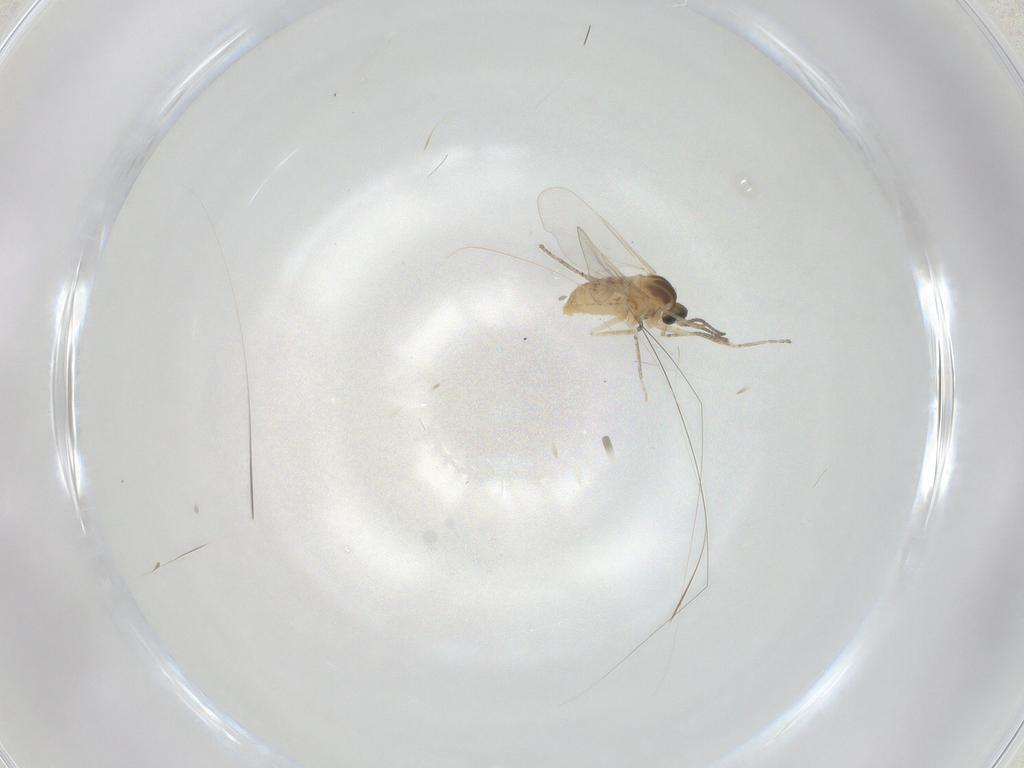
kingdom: Animalia
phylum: Arthropoda
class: Insecta
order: Diptera
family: Cecidomyiidae
